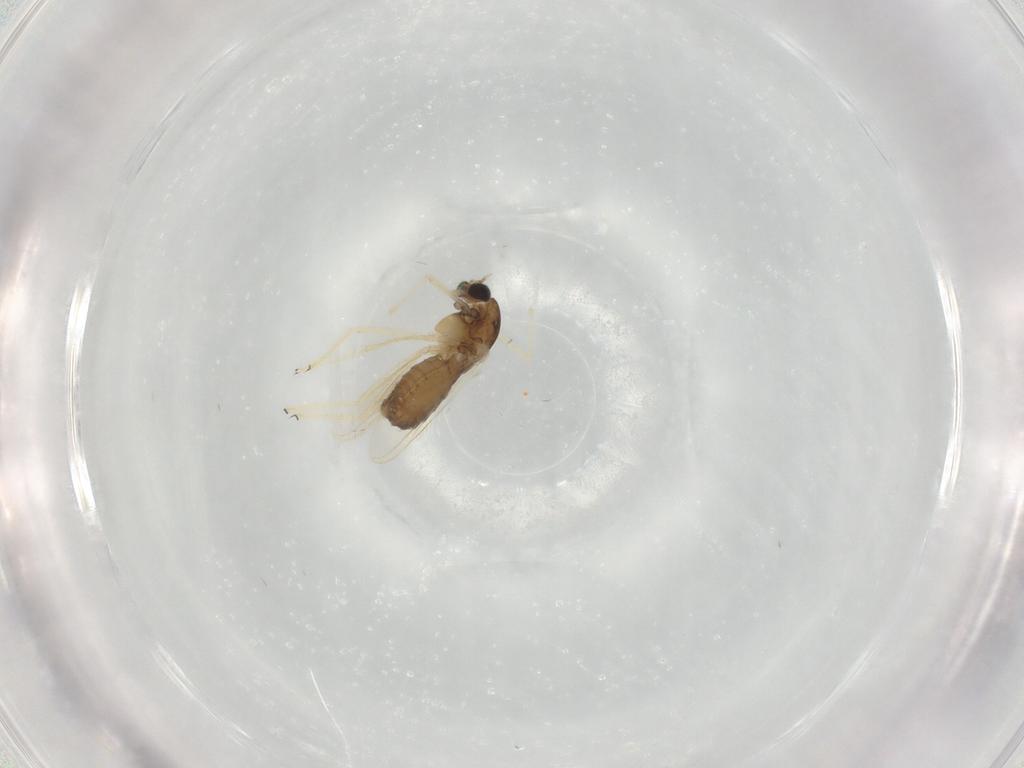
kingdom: Animalia
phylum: Arthropoda
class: Insecta
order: Diptera
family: Chironomidae
